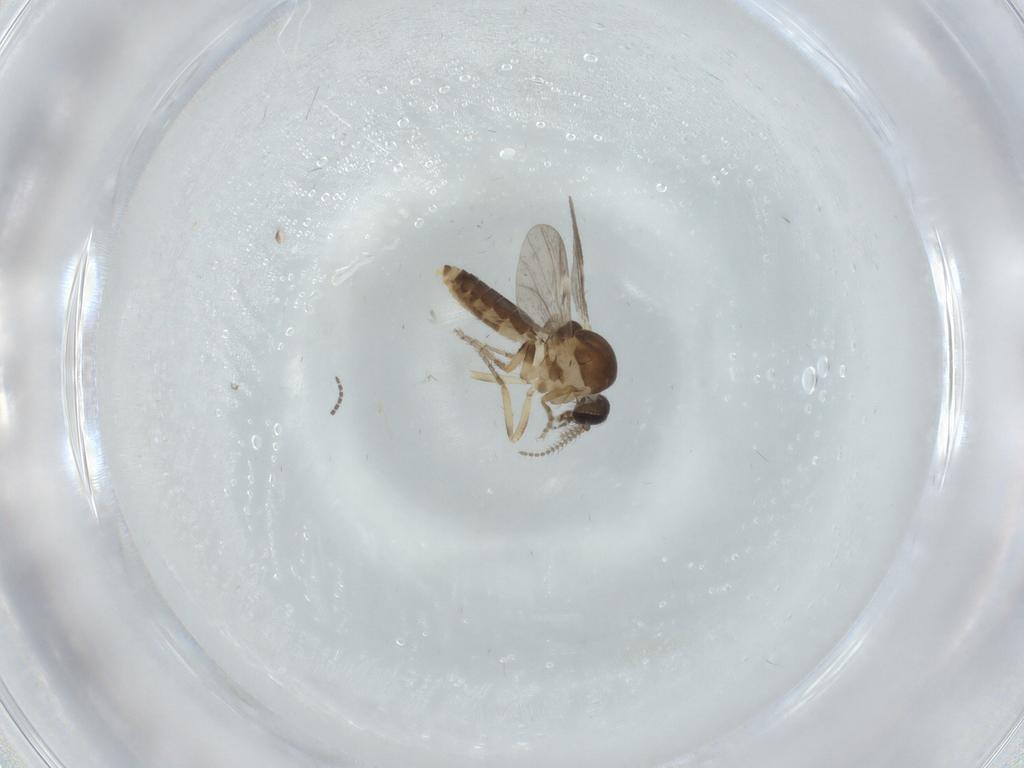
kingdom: Animalia
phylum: Arthropoda
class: Insecta
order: Diptera
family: Ceratopogonidae
